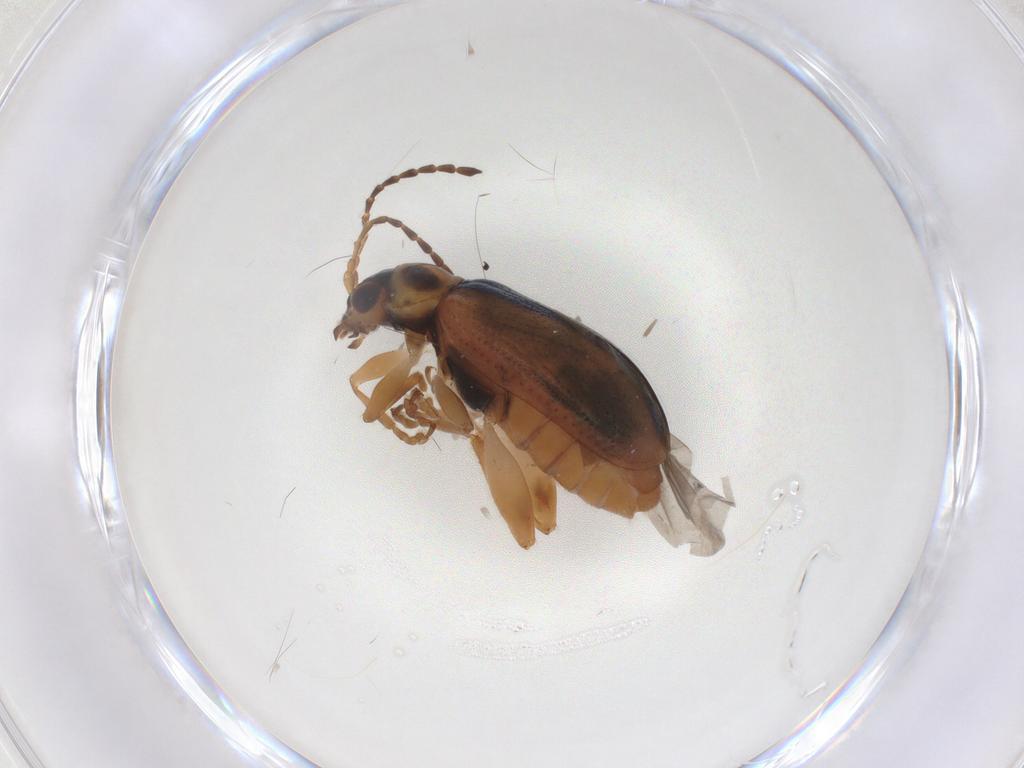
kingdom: Animalia
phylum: Arthropoda
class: Insecta
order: Coleoptera
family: Chrysomelidae
